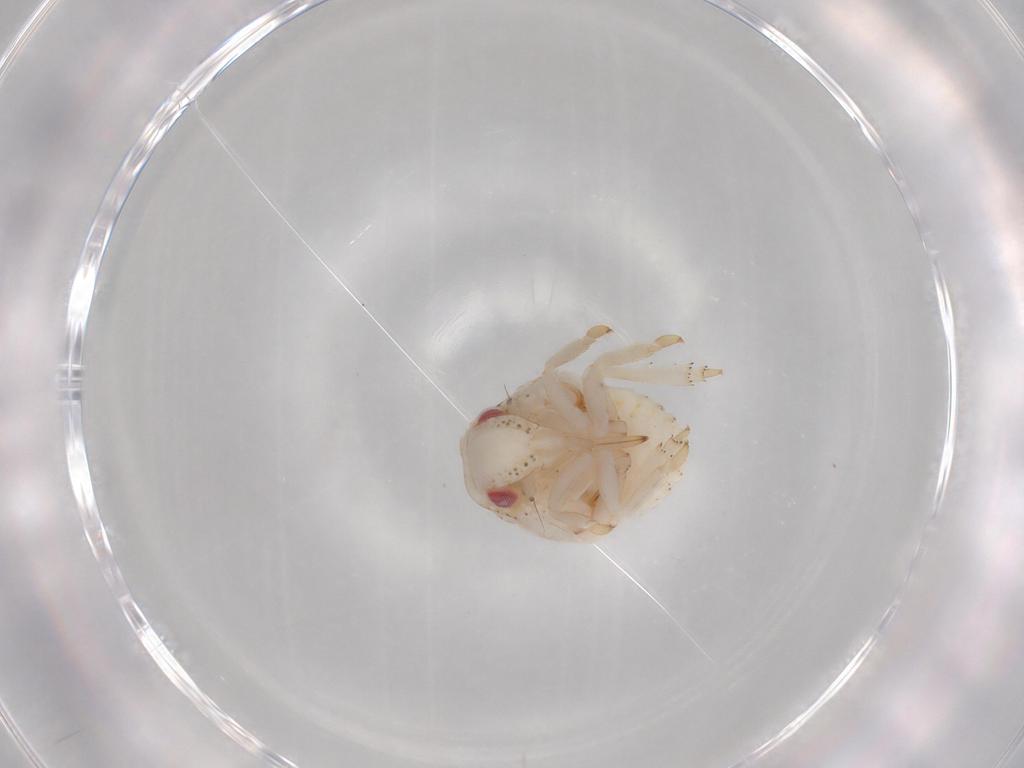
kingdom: Animalia
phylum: Arthropoda
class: Insecta
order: Hemiptera
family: Acanaloniidae
